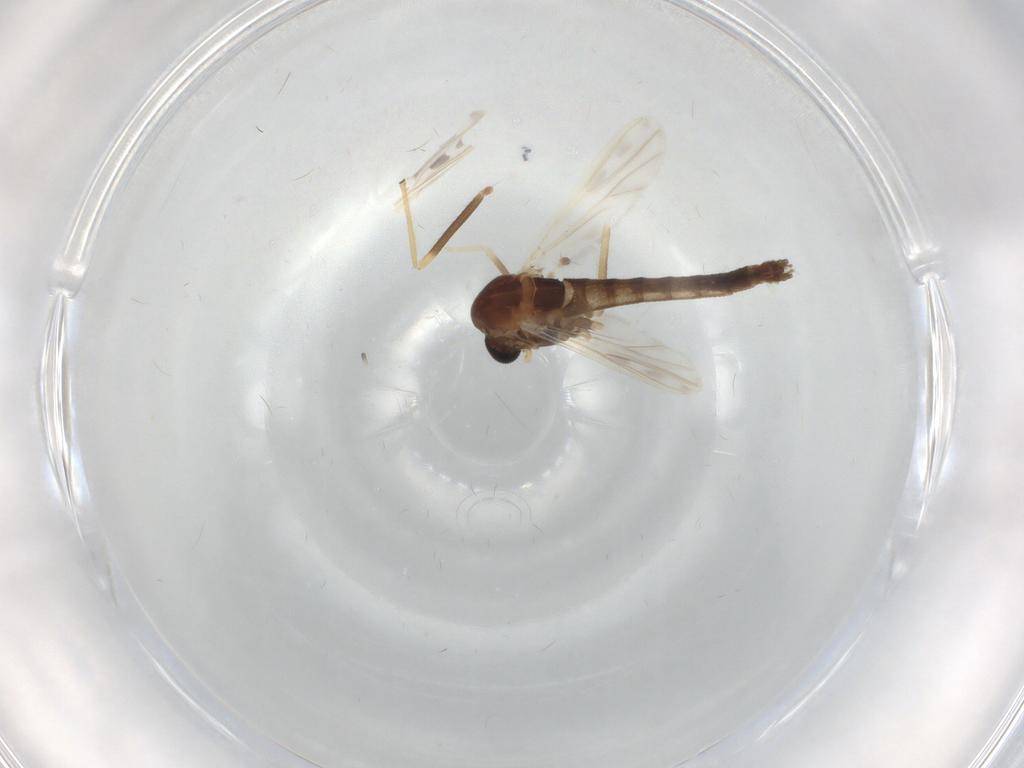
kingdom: Animalia
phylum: Arthropoda
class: Insecta
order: Diptera
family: Chironomidae
